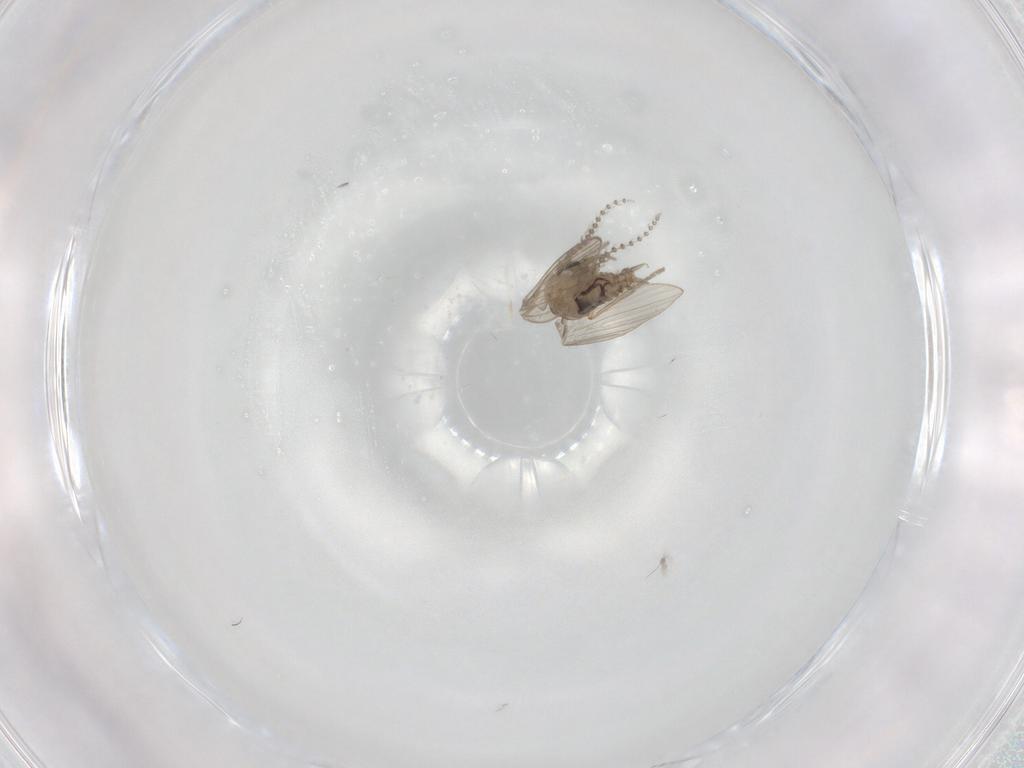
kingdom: Animalia
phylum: Arthropoda
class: Insecta
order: Diptera
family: Psychodidae
